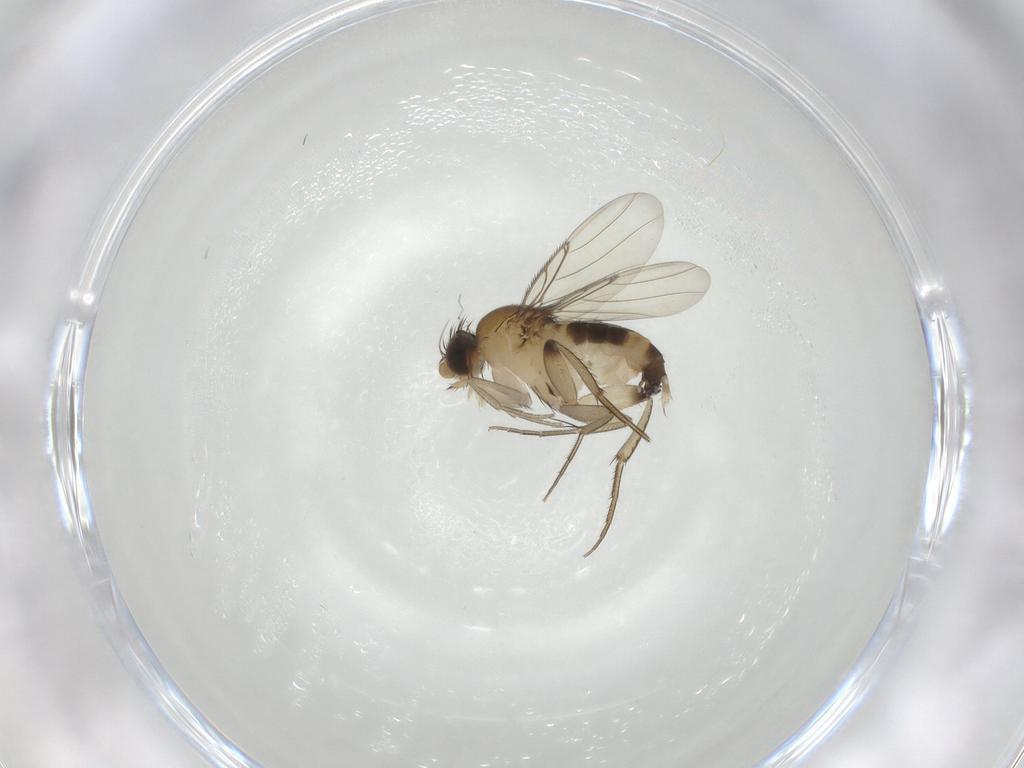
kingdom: Animalia
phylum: Arthropoda
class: Insecta
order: Diptera
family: Phoridae
